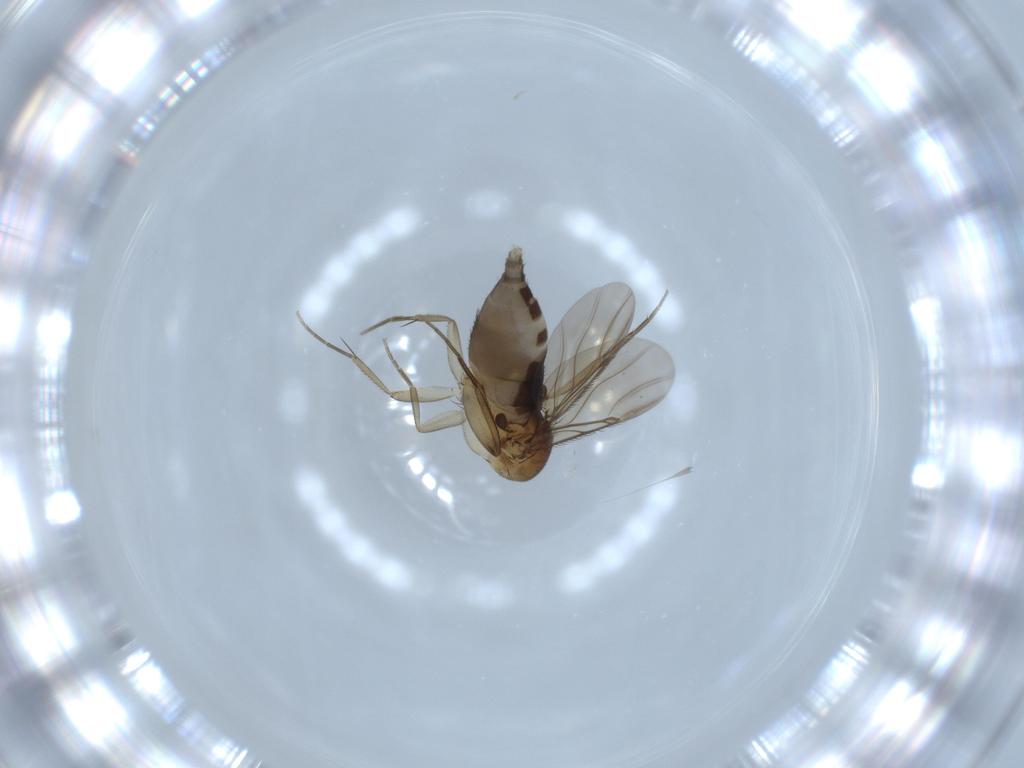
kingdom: Animalia
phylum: Arthropoda
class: Insecta
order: Diptera
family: Phoridae
